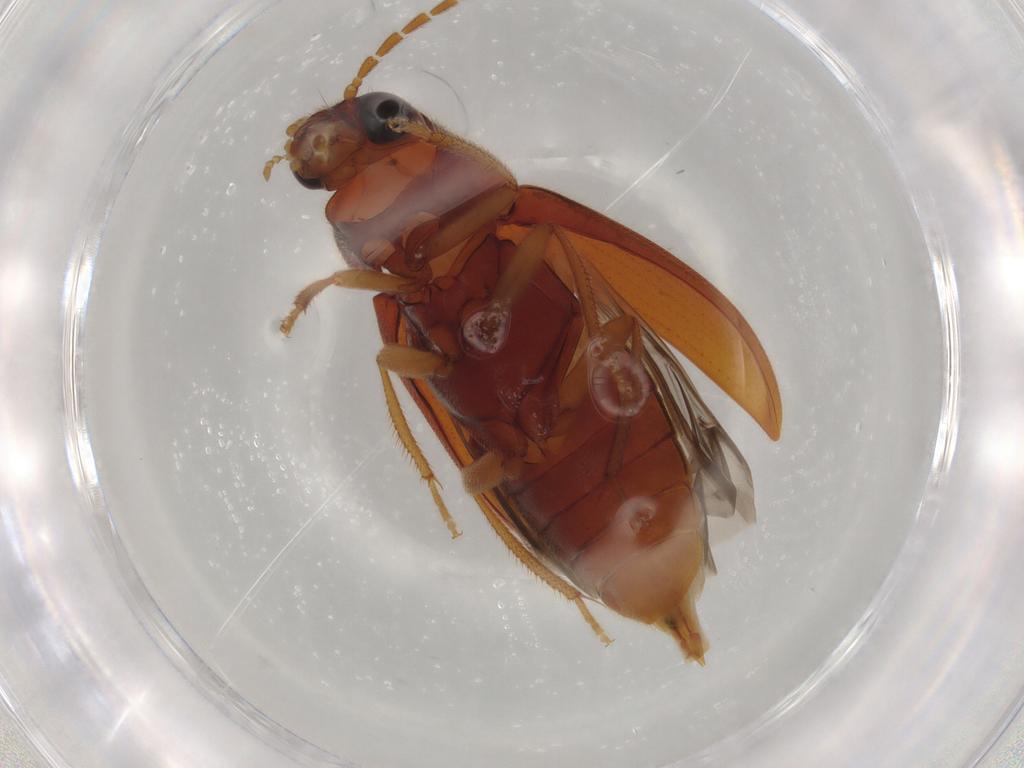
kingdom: Animalia
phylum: Arthropoda
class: Insecta
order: Coleoptera
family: Ptilodactylidae
